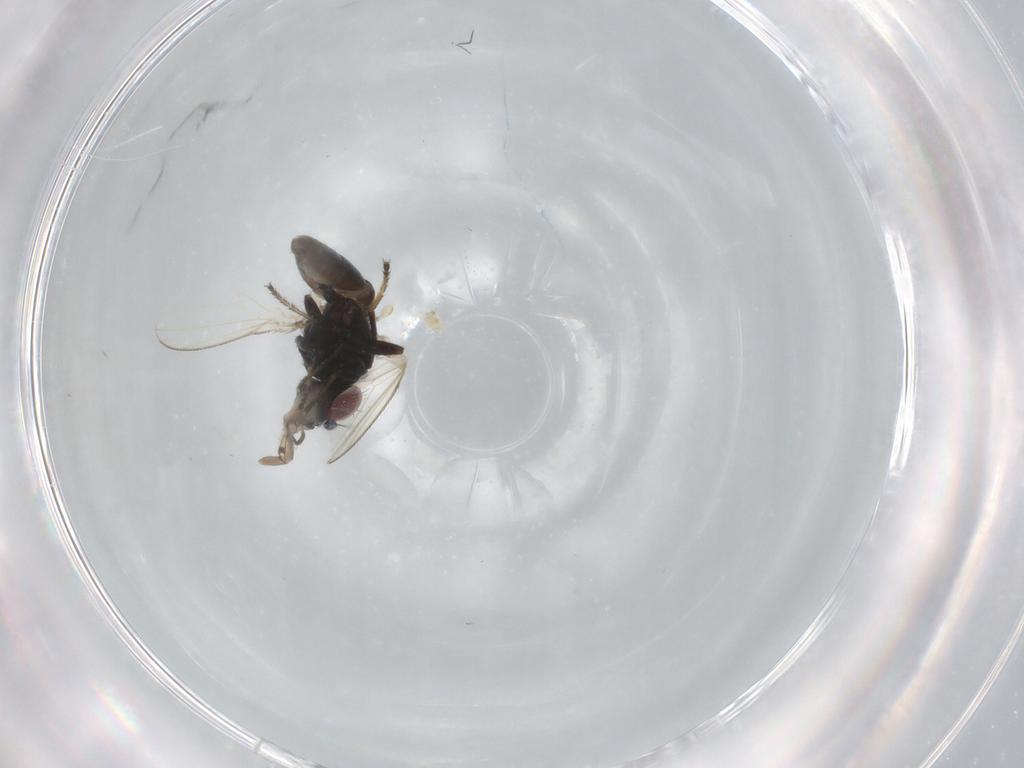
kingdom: Animalia
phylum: Arthropoda
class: Insecta
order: Diptera
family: Ephydridae
